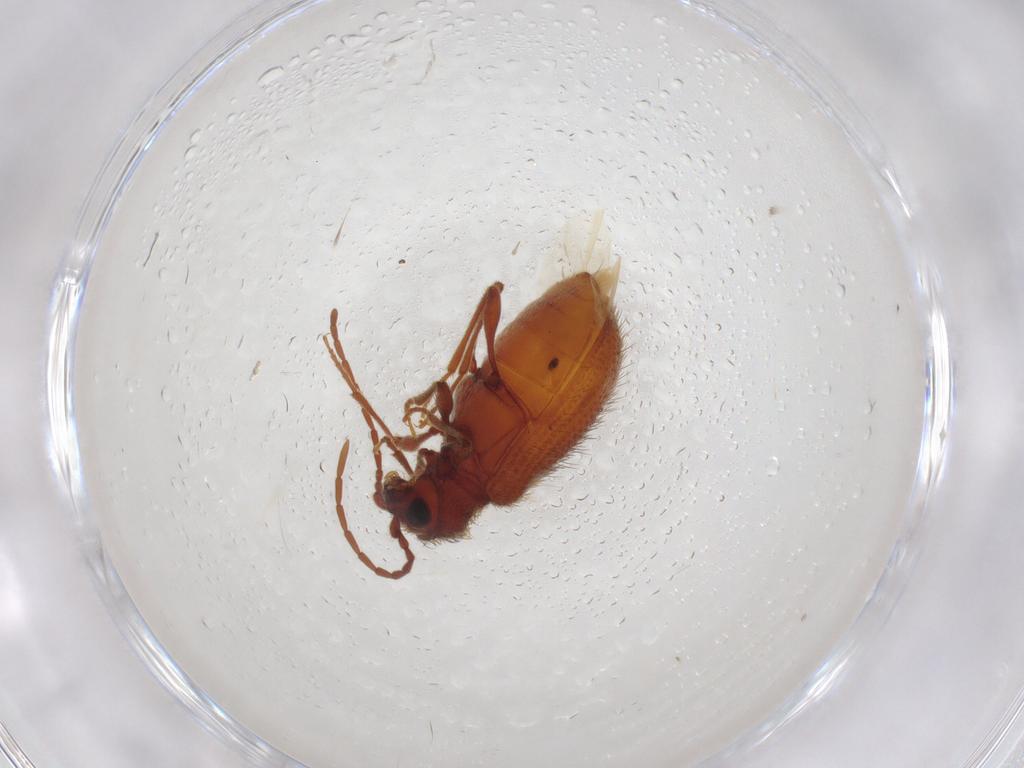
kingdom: Animalia
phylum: Arthropoda
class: Insecta
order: Coleoptera
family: Ptinidae
